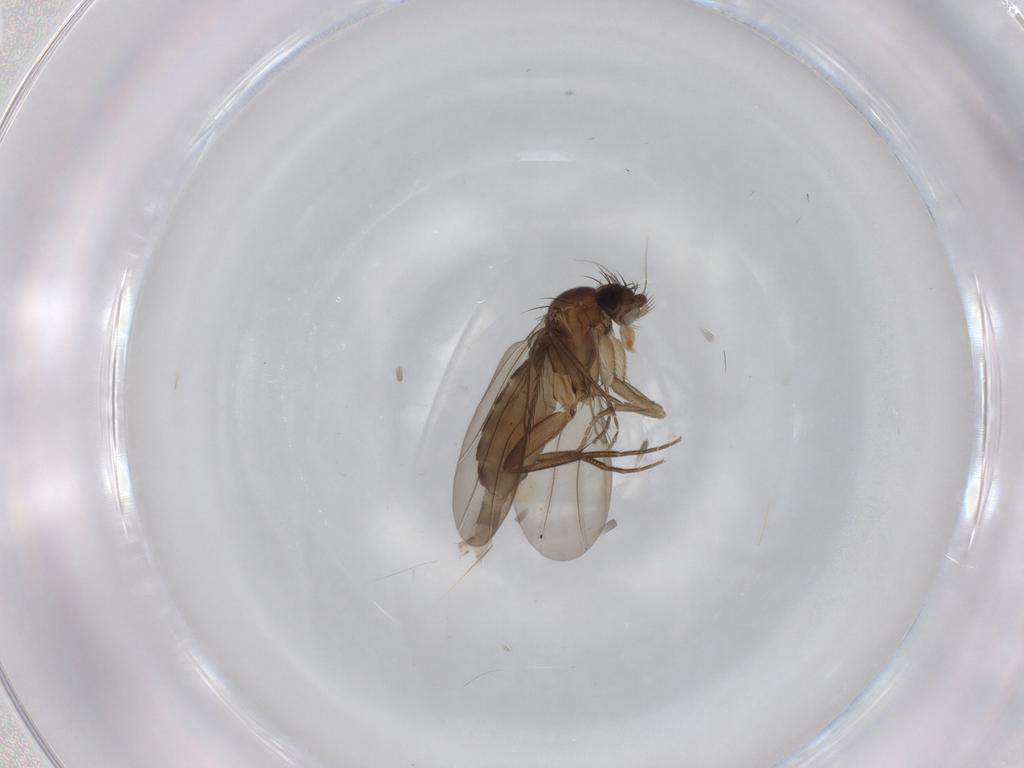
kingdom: Animalia
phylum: Arthropoda
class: Insecta
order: Diptera
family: Phoridae
